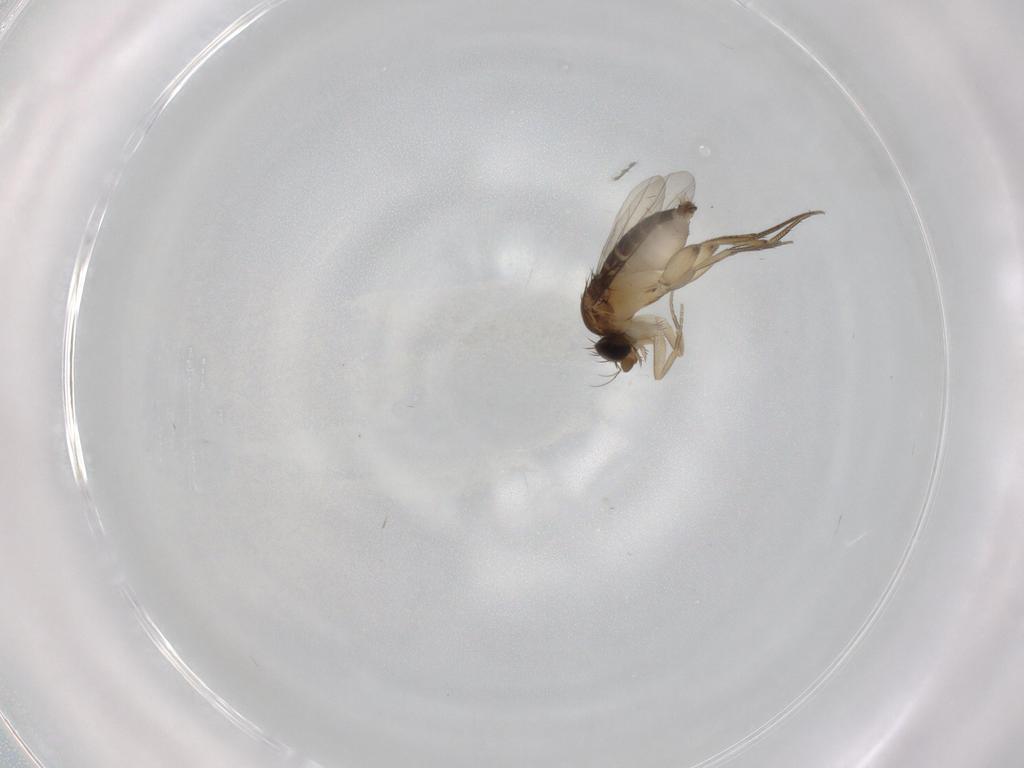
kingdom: Animalia
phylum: Arthropoda
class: Insecta
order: Diptera
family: Phoridae
